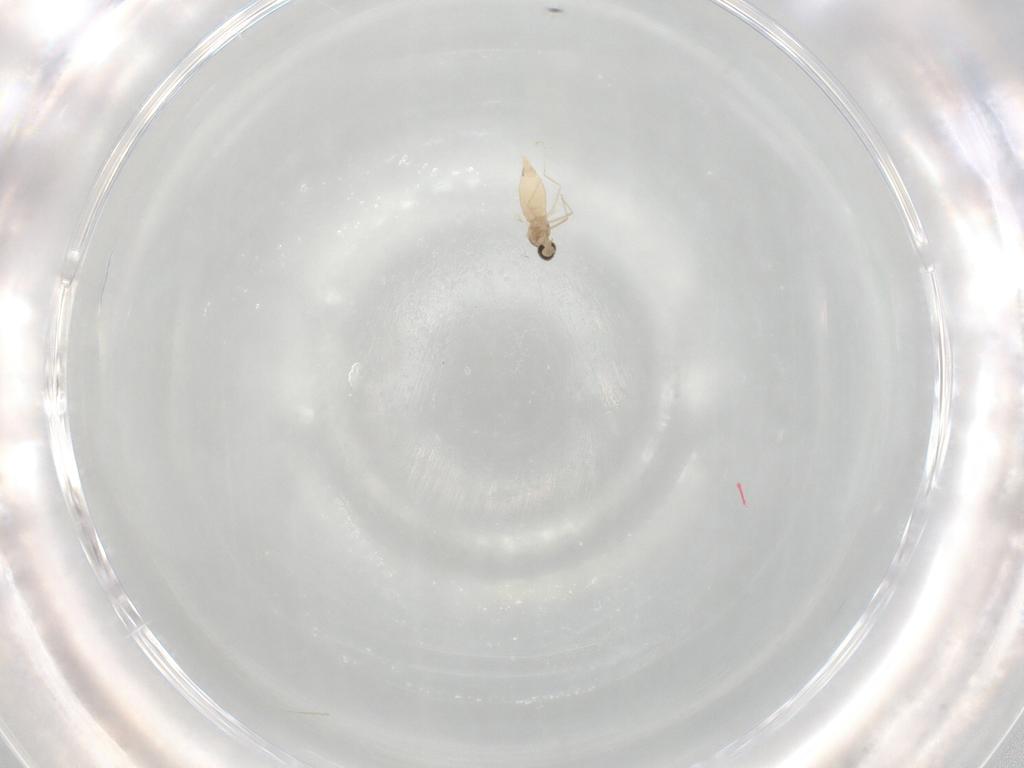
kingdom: Animalia
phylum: Arthropoda
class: Insecta
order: Diptera
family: Cecidomyiidae
